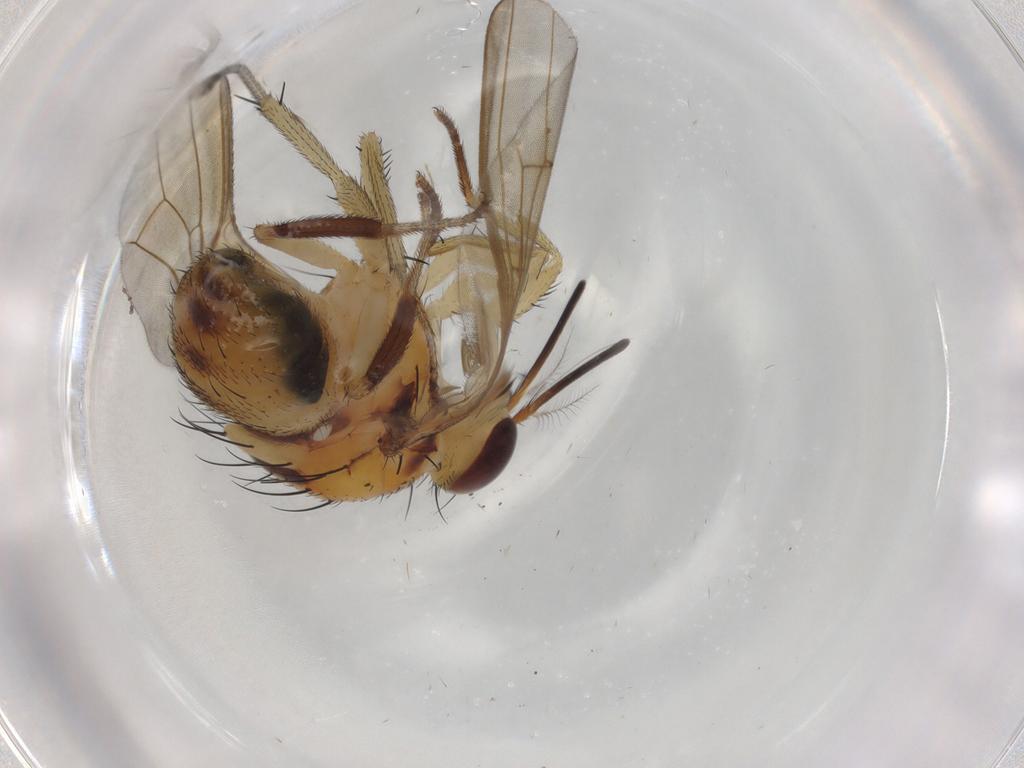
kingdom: Animalia
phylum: Arthropoda
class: Insecta
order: Diptera
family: Lauxaniidae
